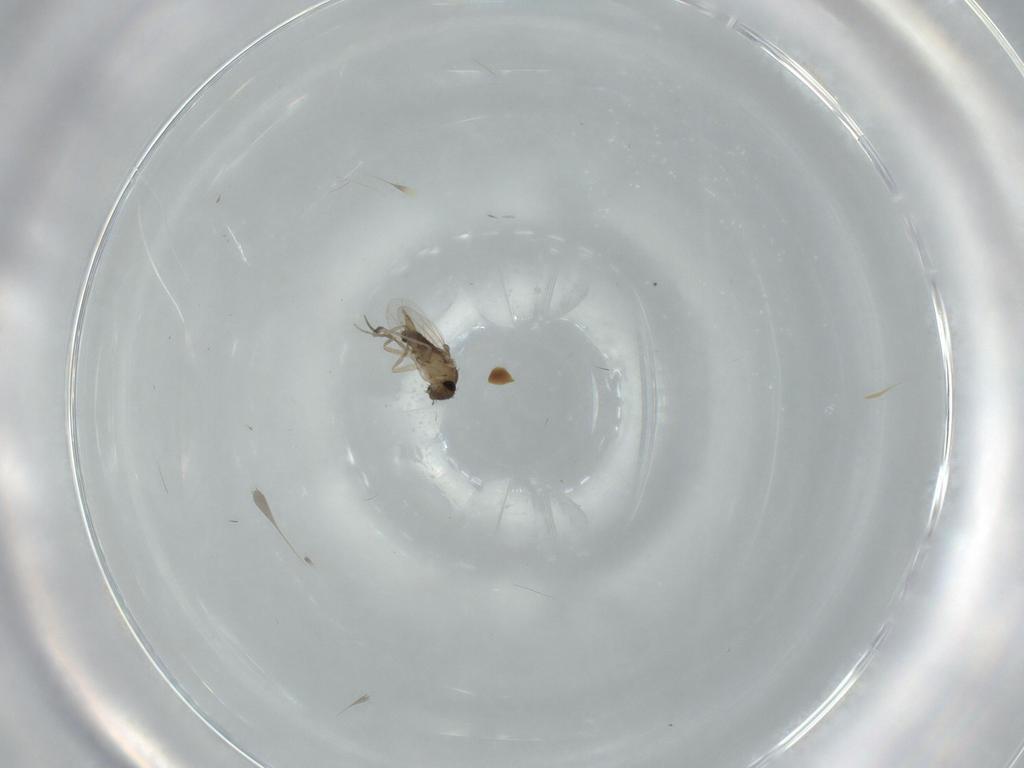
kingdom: Animalia
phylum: Arthropoda
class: Insecta
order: Diptera
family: Phoridae
